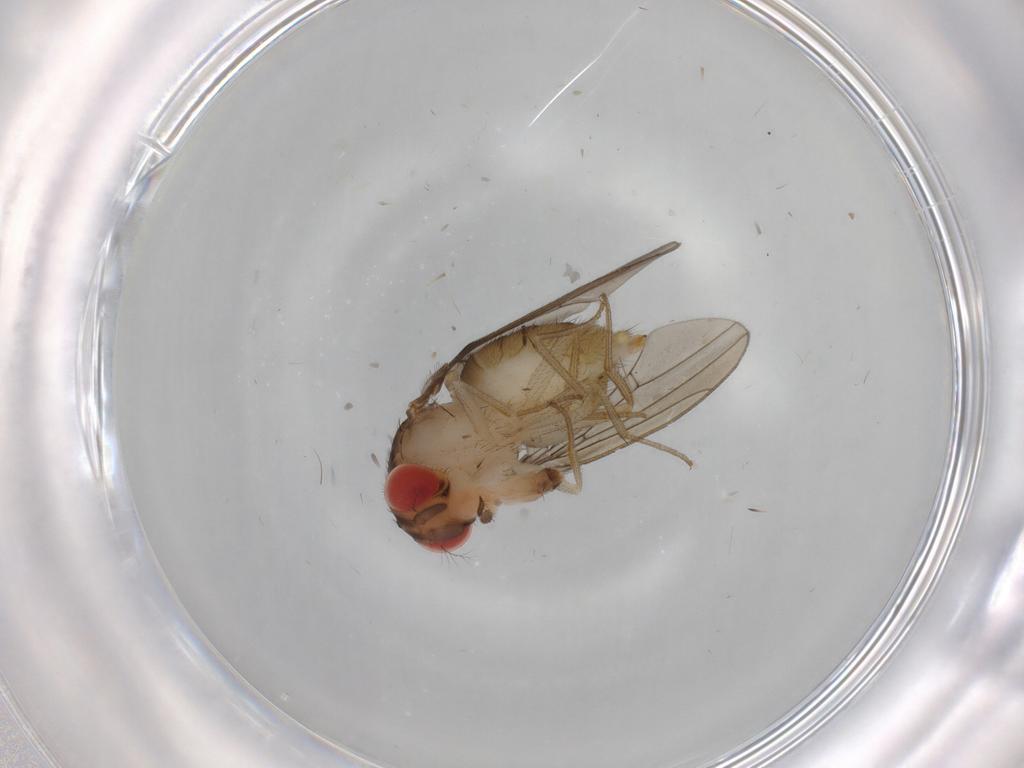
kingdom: Animalia
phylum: Arthropoda
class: Insecta
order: Diptera
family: Drosophilidae
